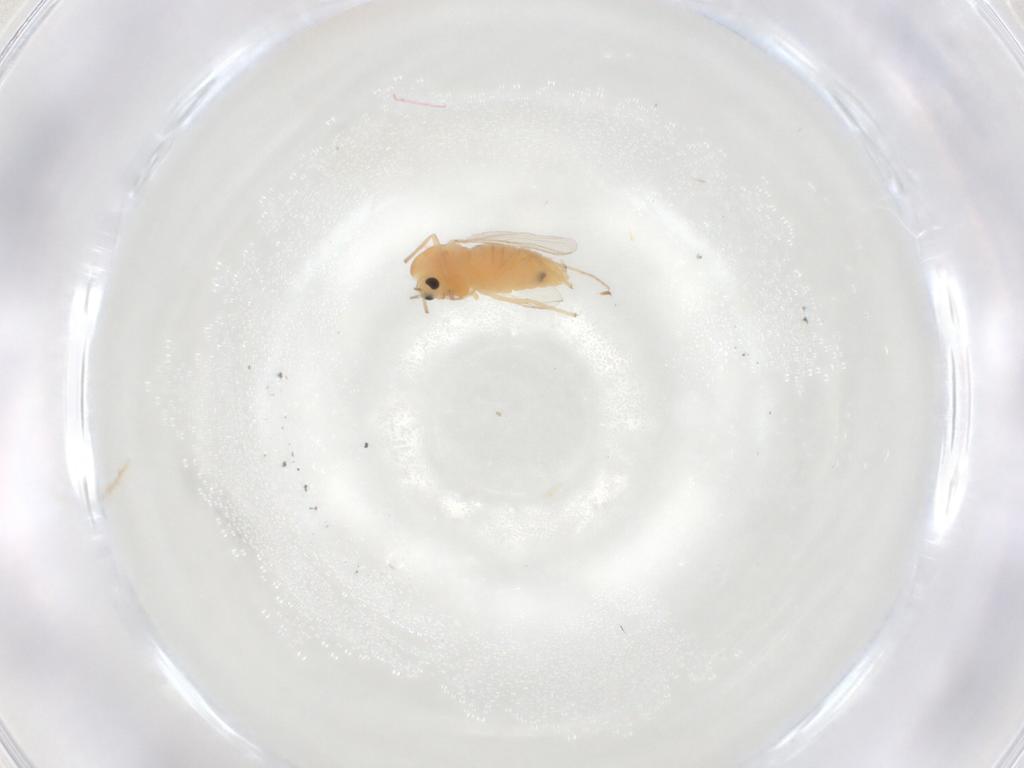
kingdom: Animalia
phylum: Arthropoda
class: Insecta
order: Diptera
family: Chironomidae
